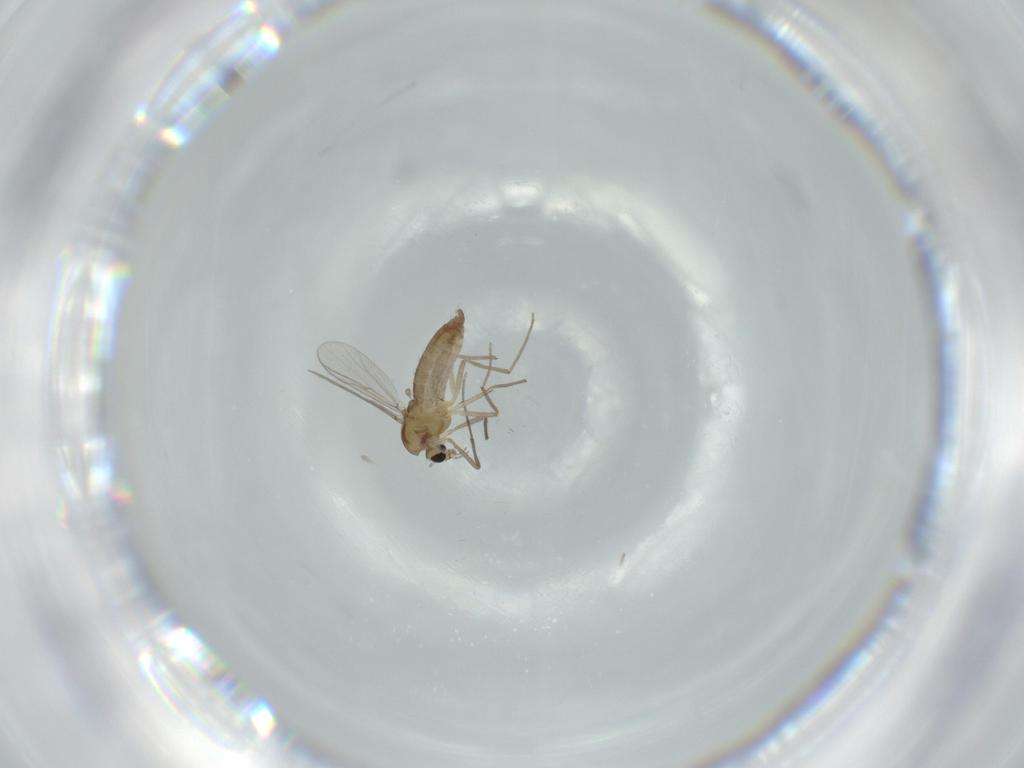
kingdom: Animalia
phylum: Arthropoda
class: Insecta
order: Diptera
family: Chironomidae
